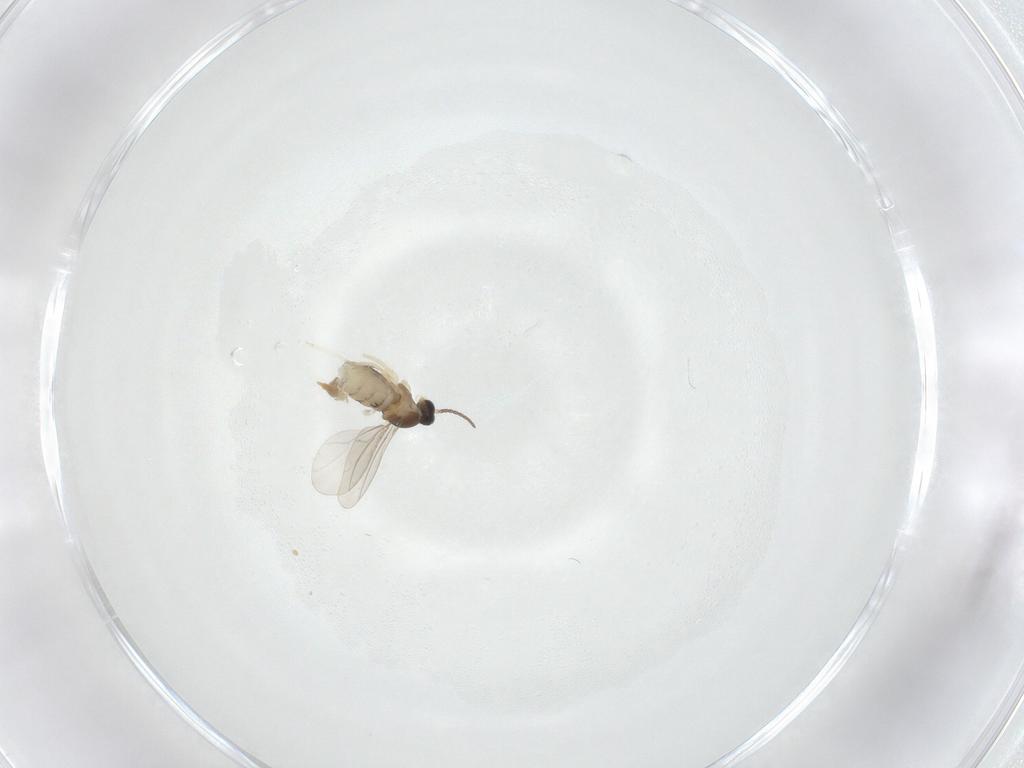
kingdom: Animalia
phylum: Arthropoda
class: Insecta
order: Diptera
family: Cecidomyiidae
